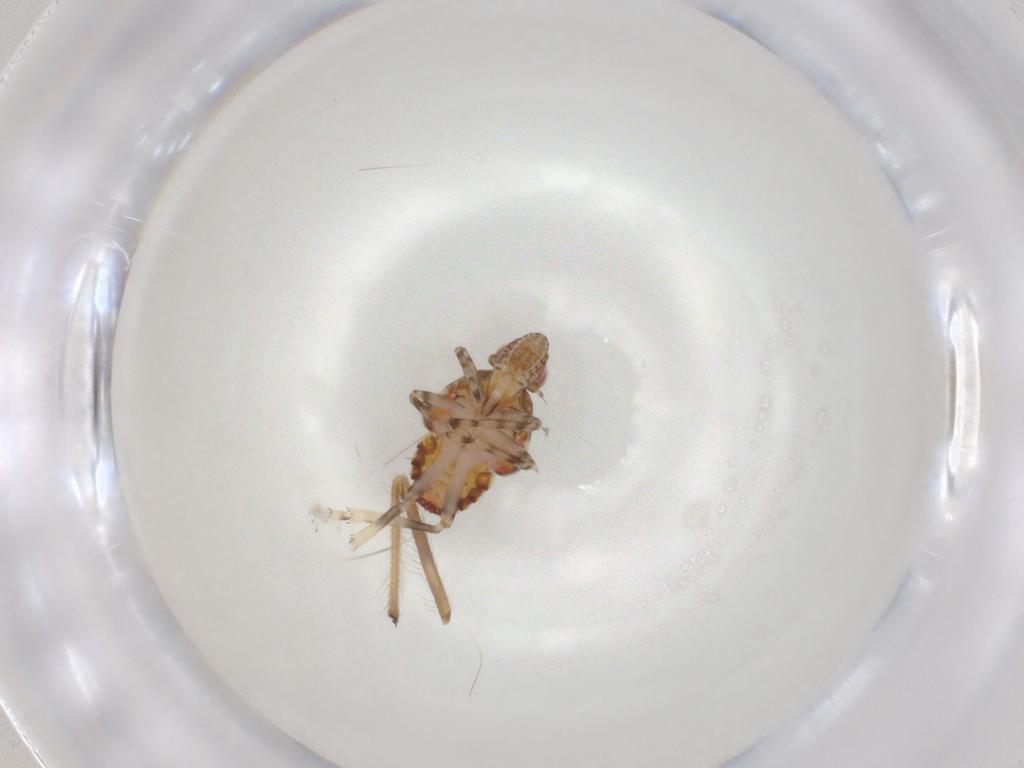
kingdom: Animalia
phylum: Arthropoda
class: Insecta
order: Hemiptera
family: Tropiduchidae
